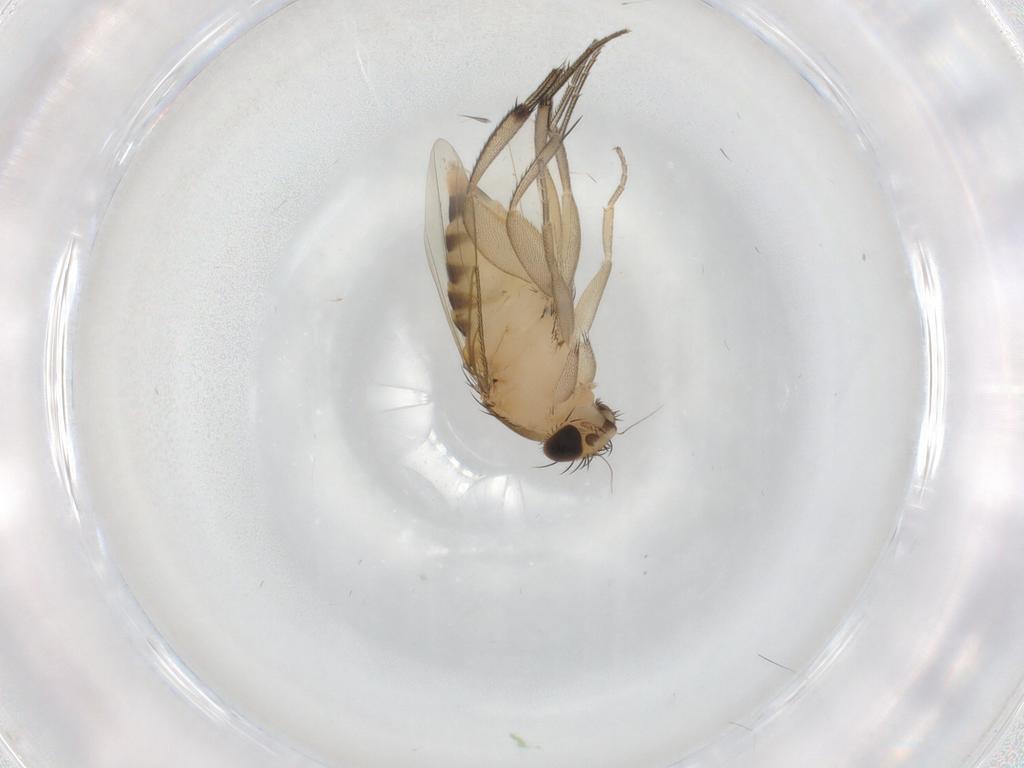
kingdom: Animalia
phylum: Arthropoda
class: Insecta
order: Diptera
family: Phoridae
